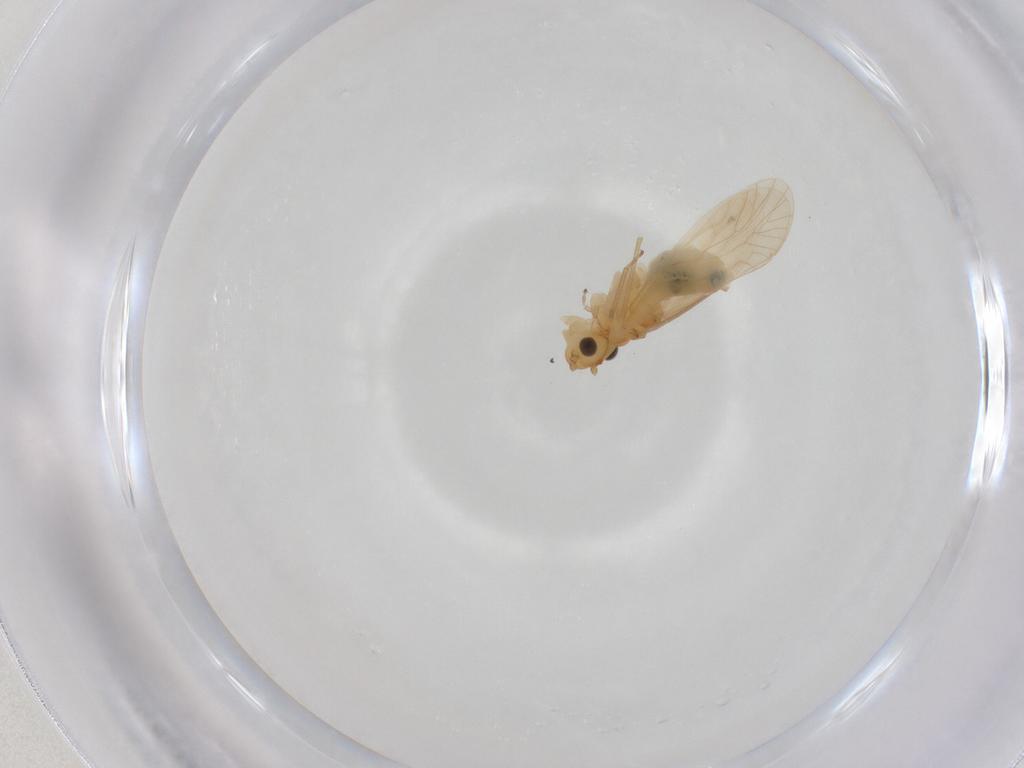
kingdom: Animalia
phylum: Arthropoda
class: Insecta
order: Psocodea
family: Caeciliusidae
